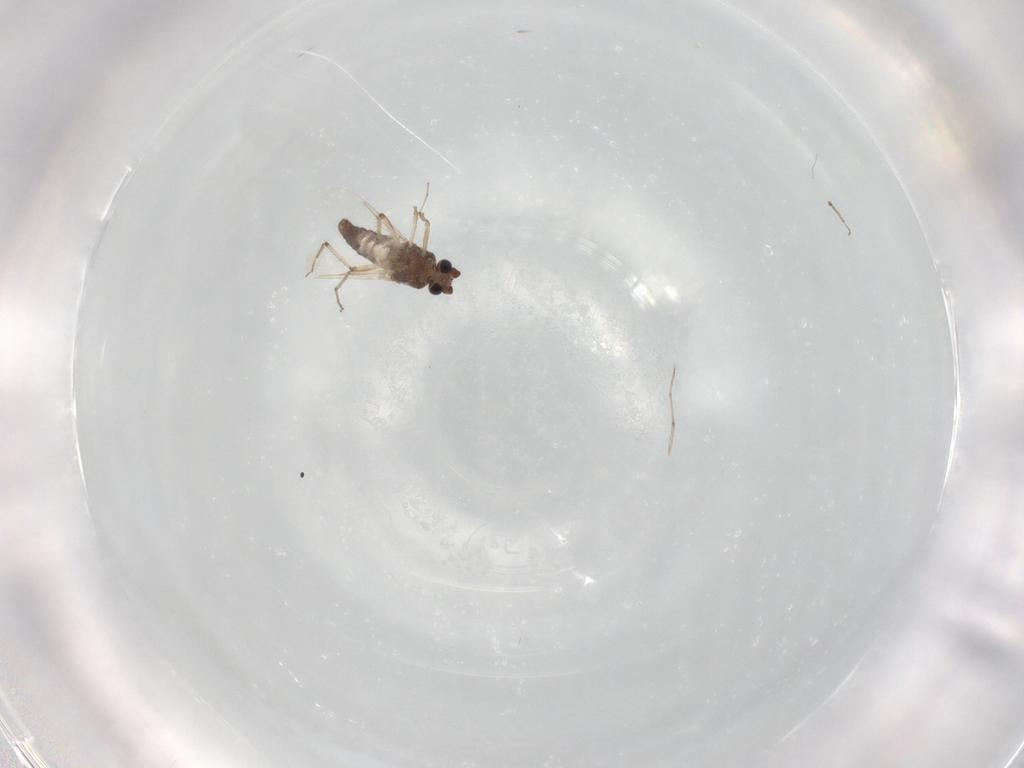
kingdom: Animalia
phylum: Arthropoda
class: Insecta
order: Diptera
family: Ceratopogonidae
